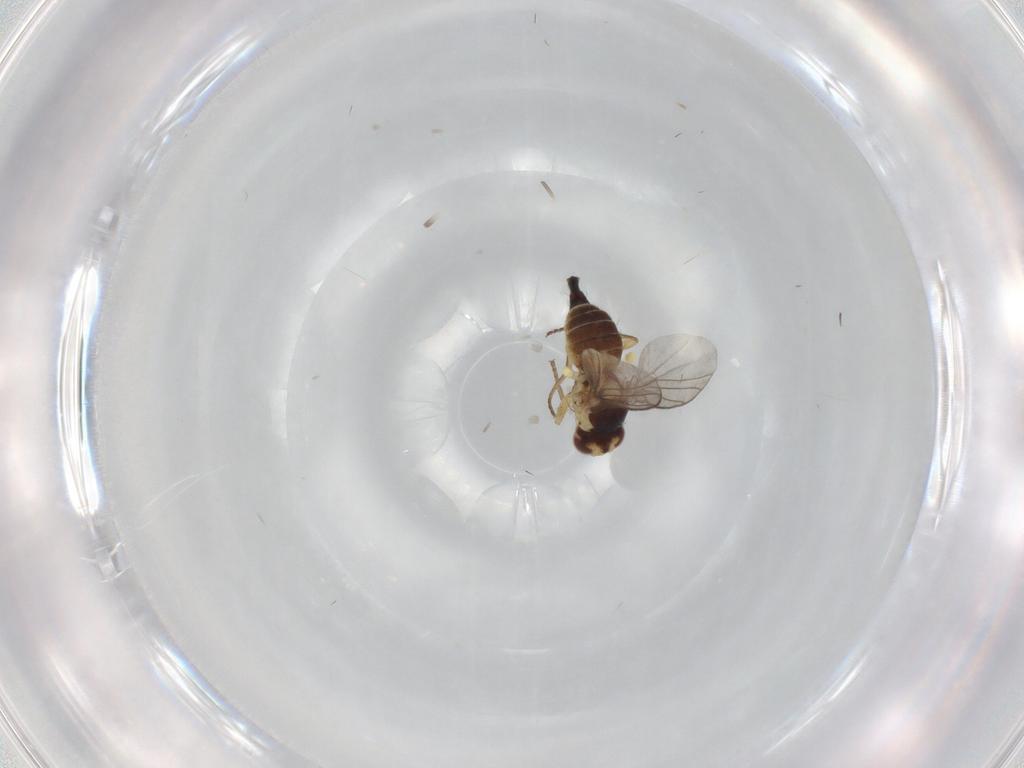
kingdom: Animalia
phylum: Arthropoda
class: Insecta
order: Diptera
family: Agromyzidae
